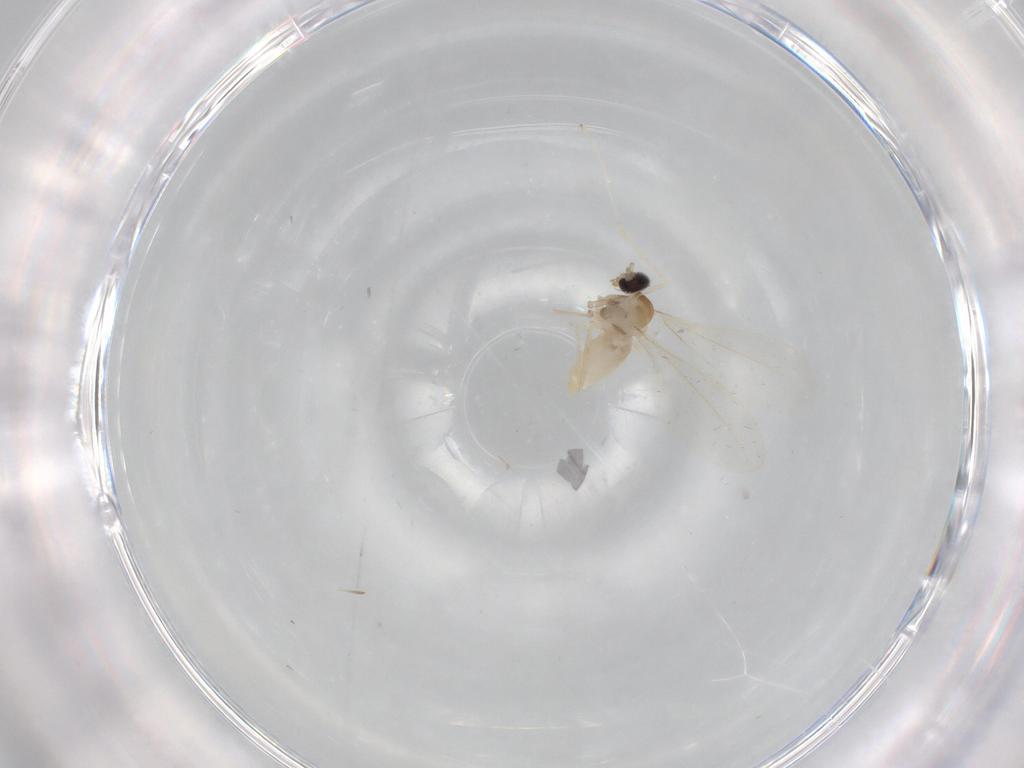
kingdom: Animalia
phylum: Arthropoda
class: Insecta
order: Diptera
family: Cecidomyiidae
